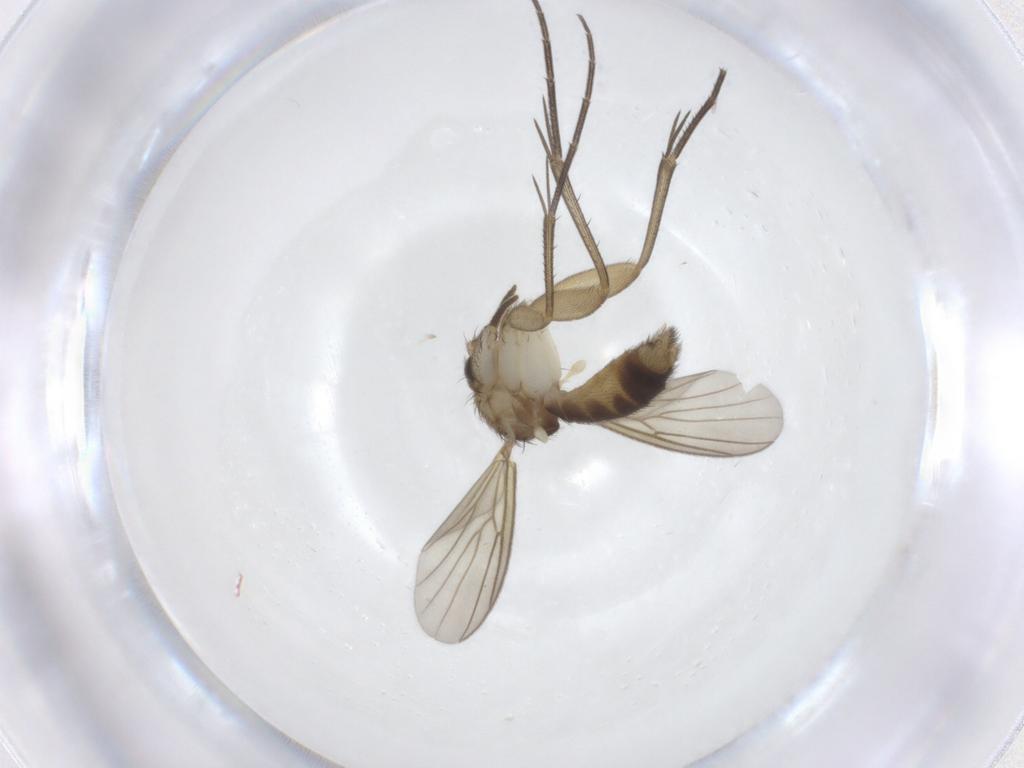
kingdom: Animalia
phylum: Arthropoda
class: Insecta
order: Diptera
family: Mycetophilidae
